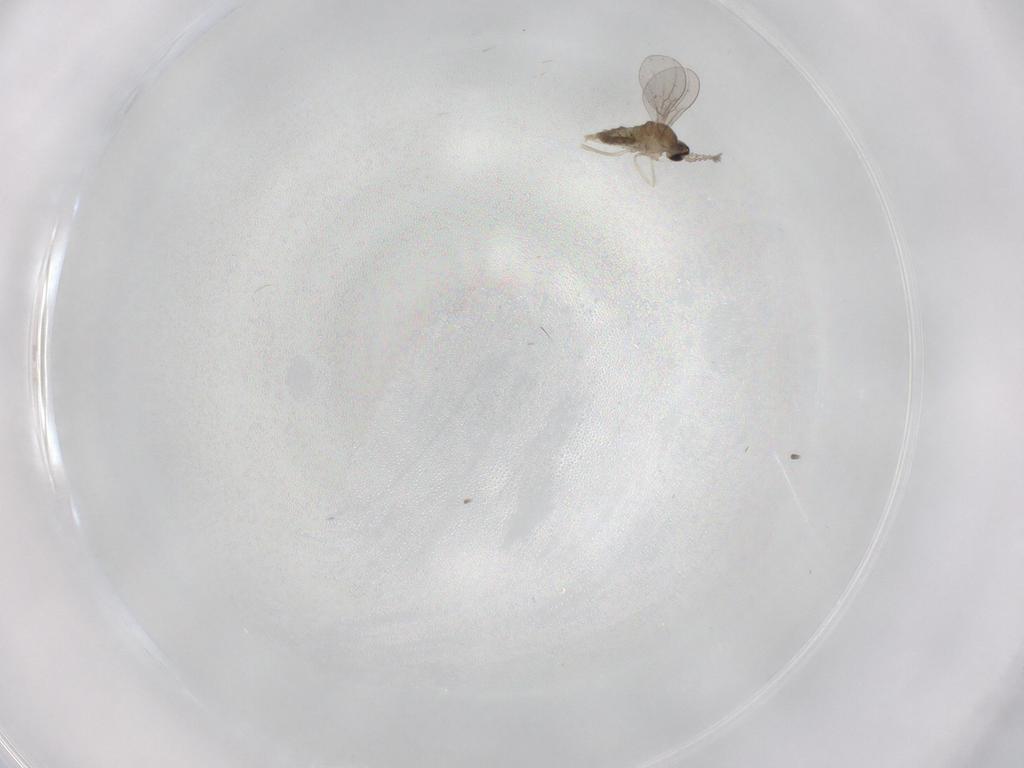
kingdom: Animalia
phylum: Arthropoda
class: Insecta
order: Diptera
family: Cecidomyiidae
